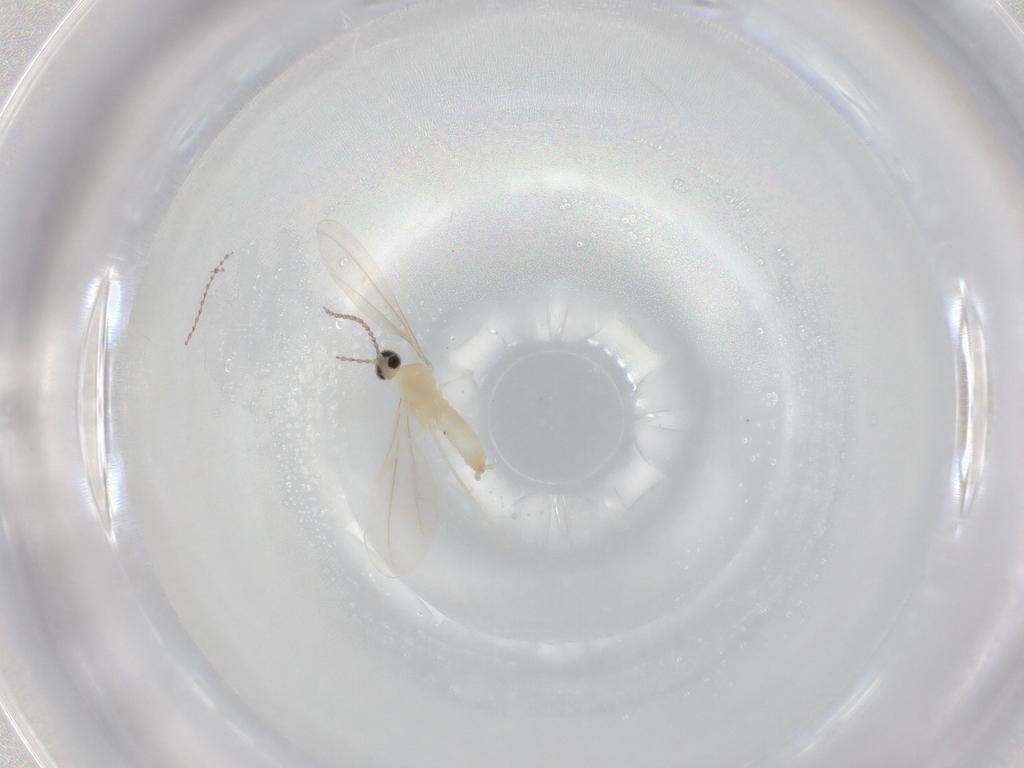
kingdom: Animalia
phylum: Arthropoda
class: Insecta
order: Diptera
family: Cecidomyiidae
